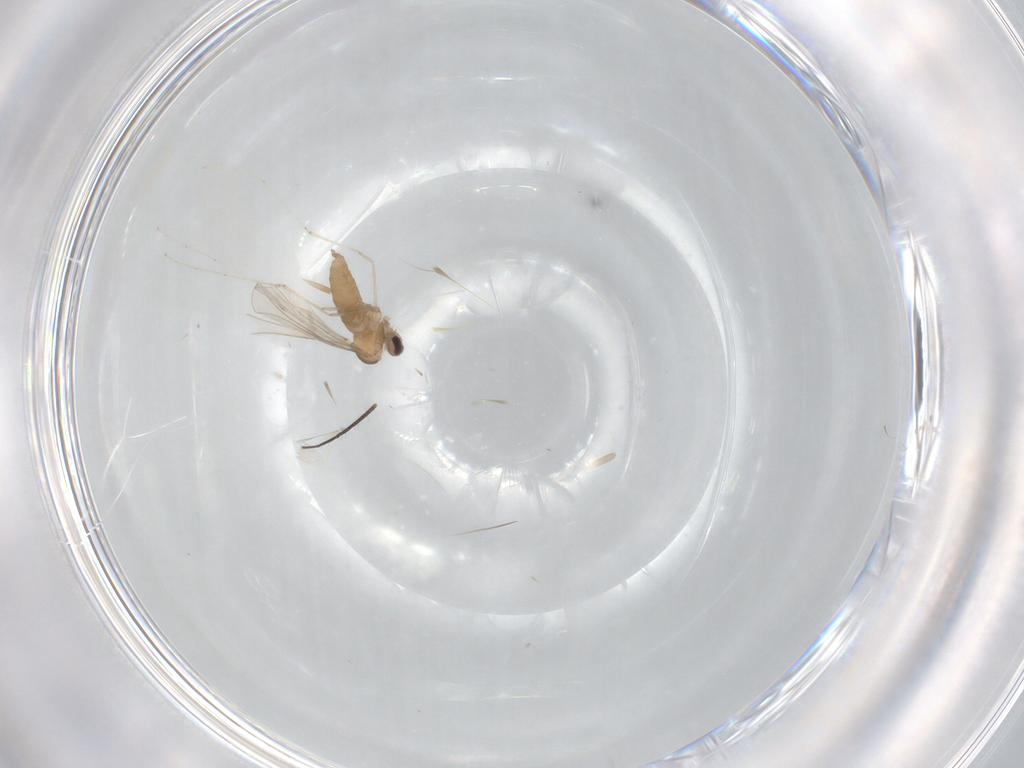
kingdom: Animalia
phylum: Arthropoda
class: Insecta
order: Diptera
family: Cecidomyiidae
